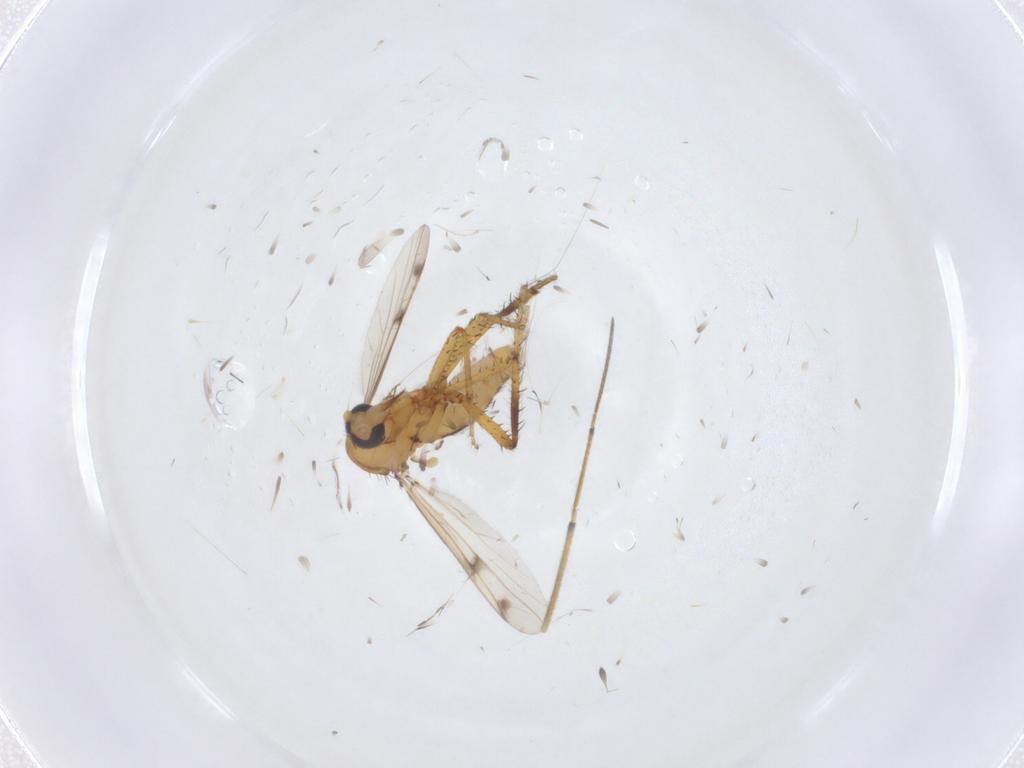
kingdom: Animalia
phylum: Arthropoda
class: Insecta
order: Diptera
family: Ceratopogonidae
